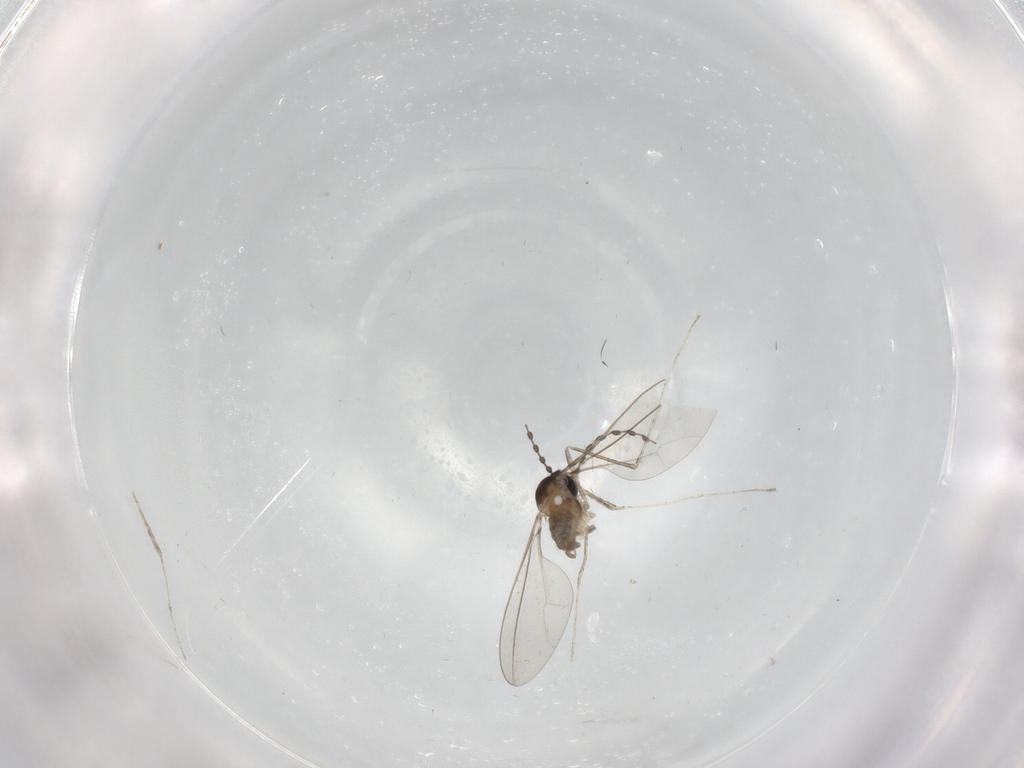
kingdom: Animalia
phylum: Arthropoda
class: Insecta
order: Diptera
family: Cecidomyiidae
